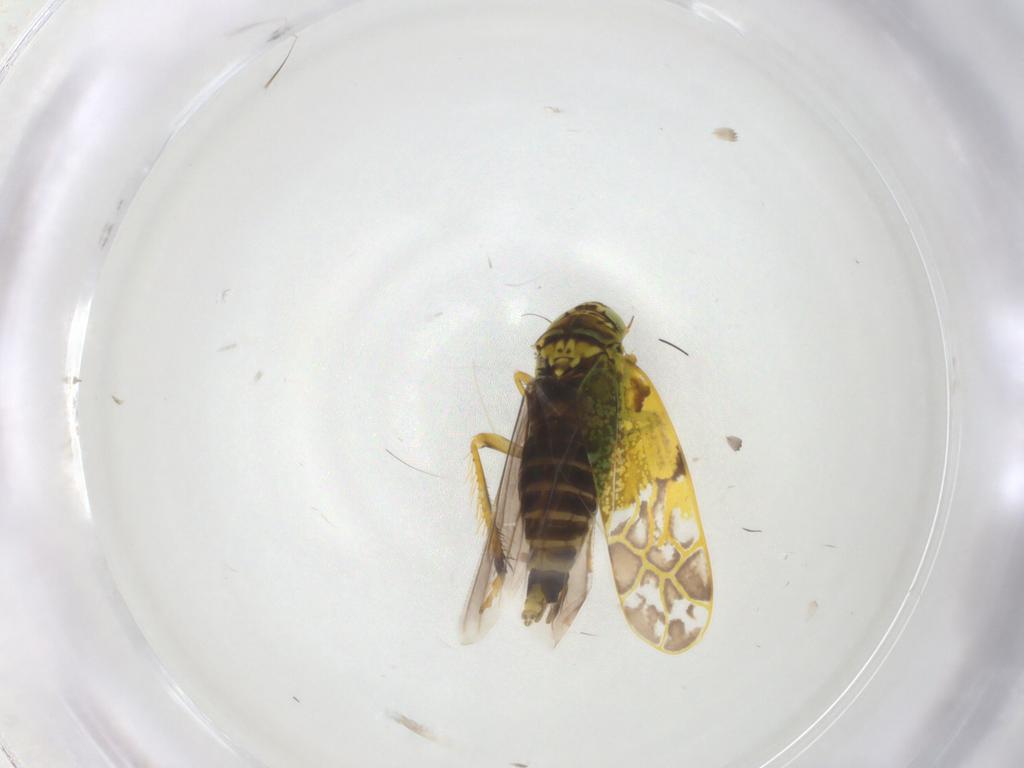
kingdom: Animalia
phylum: Arthropoda
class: Insecta
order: Hemiptera
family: Cicadellidae
